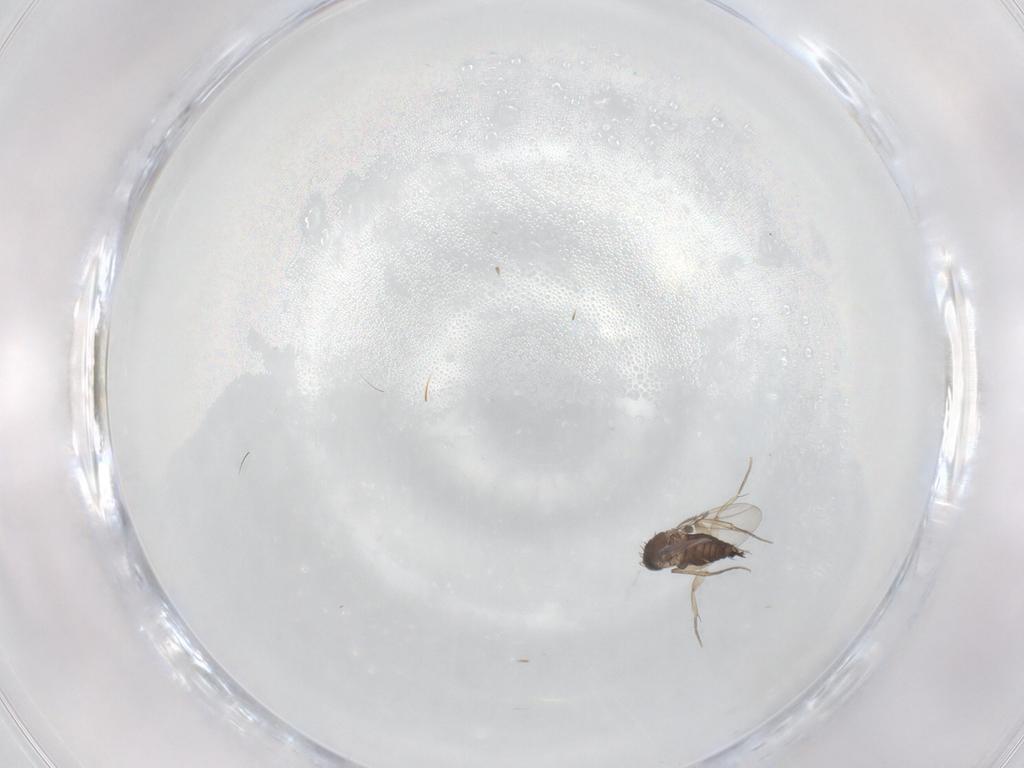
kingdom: Animalia
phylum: Arthropoda
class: Insecta
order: Diptera
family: Phoridae
